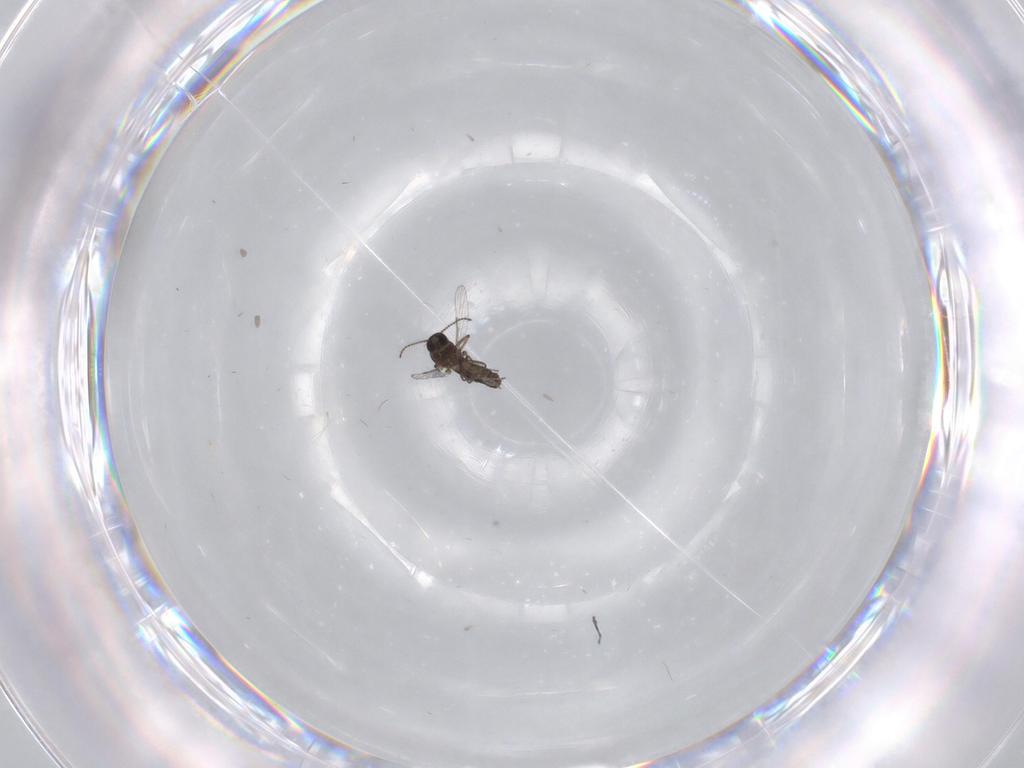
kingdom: Animalia
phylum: Arthropoda
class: Insecta
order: Diptera
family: Ceratopogonidae
